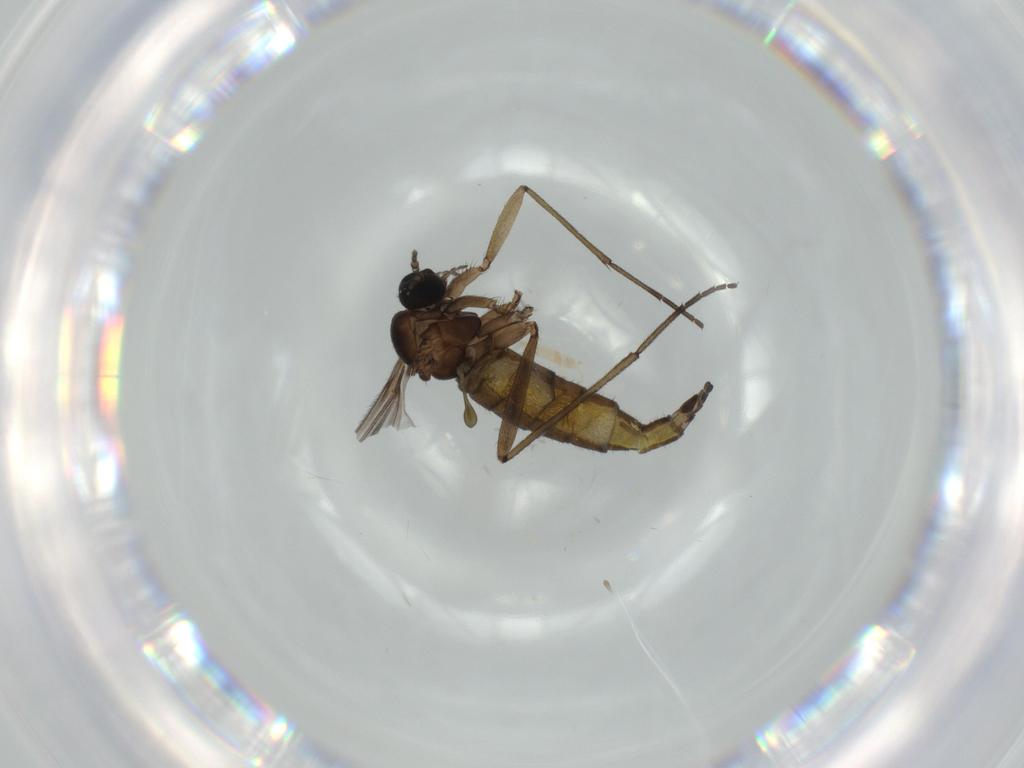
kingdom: Animalia
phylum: Arthropoda
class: Insecta
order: Diptera
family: Sciaridae
